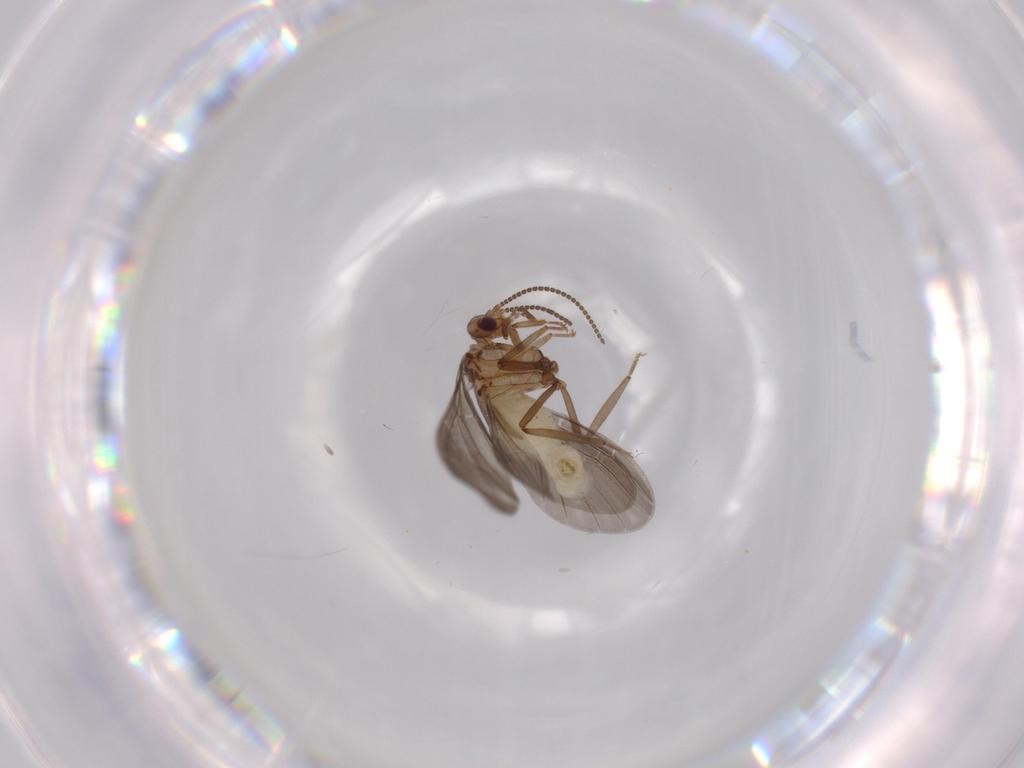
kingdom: Animalia
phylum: Arthropoda
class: Insecta
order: Neuroptera
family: Coniopterygidae
